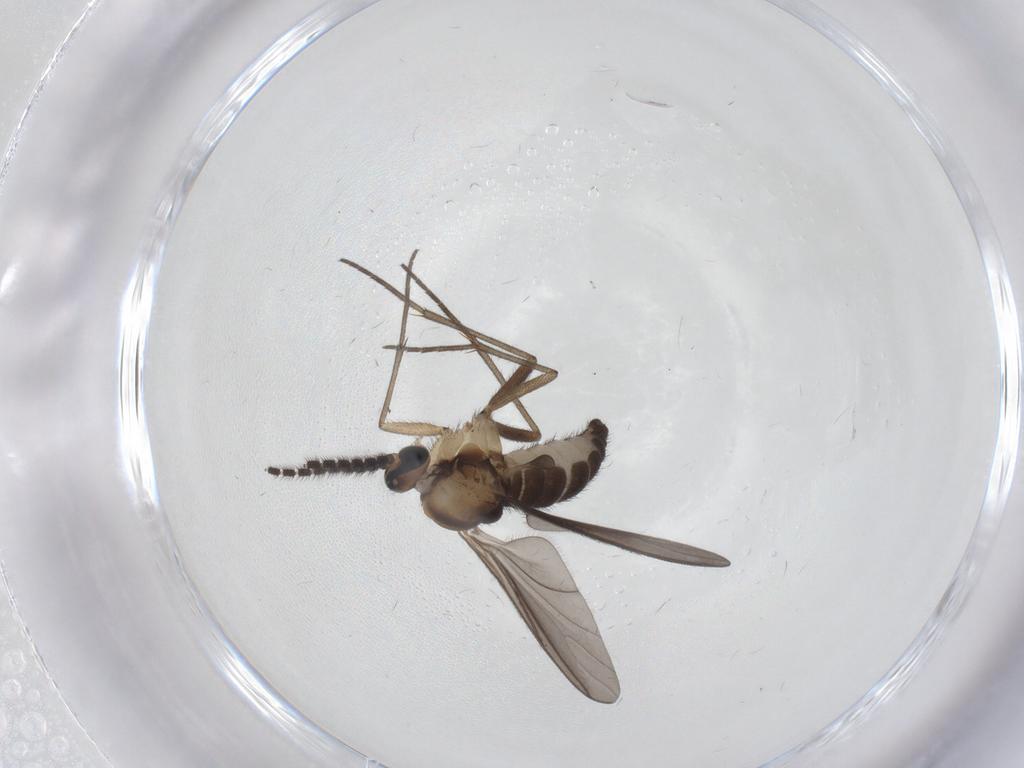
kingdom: Animalia
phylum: Arthropoda
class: Insecta
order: Diptera
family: Sciaridae
